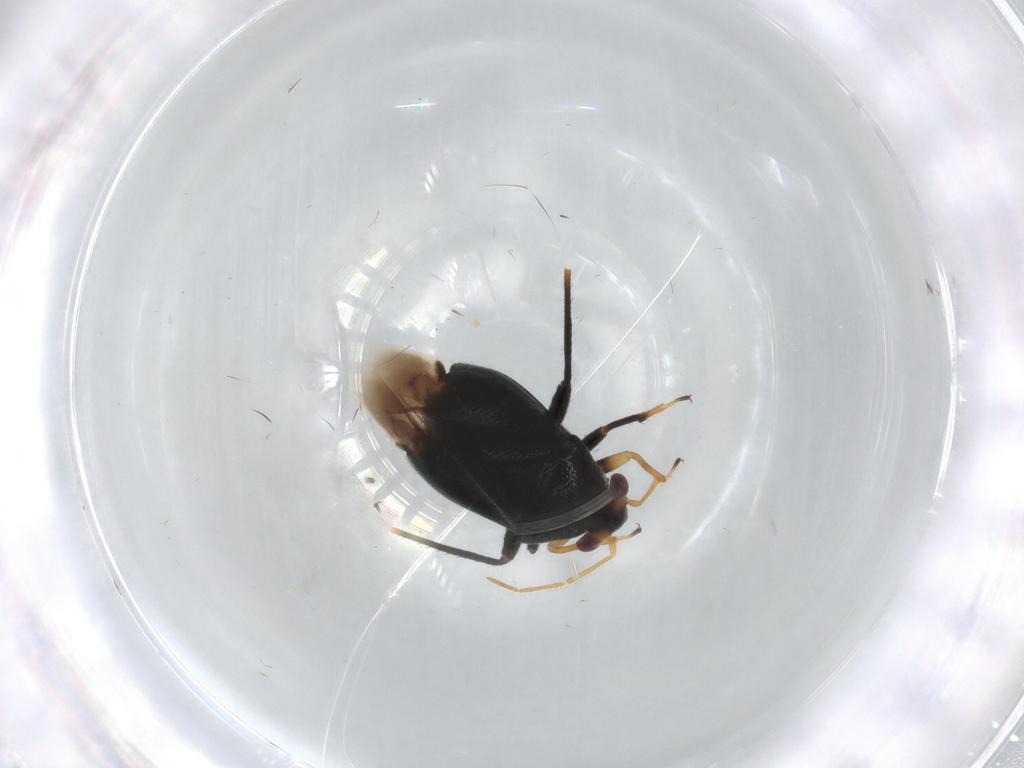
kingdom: Animalia
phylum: Arthropoda
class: Insecta
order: Hemiptera
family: Miridae
